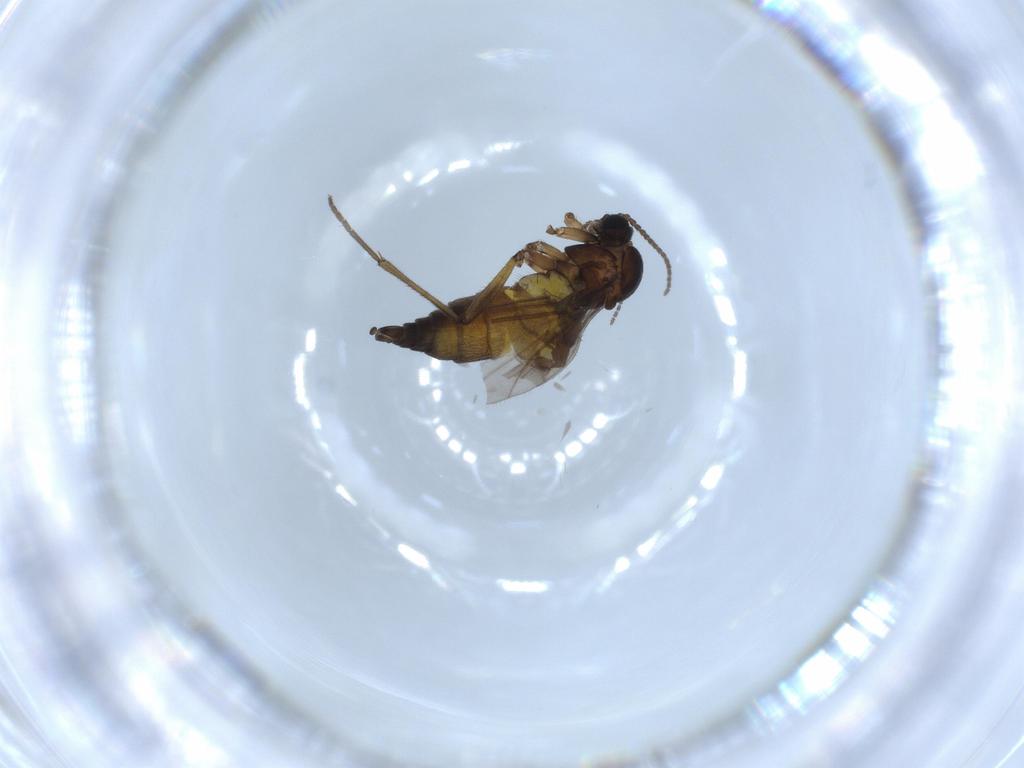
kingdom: Animalia
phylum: Arthropoda
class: Insecta
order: Diptera
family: Sciaridae
